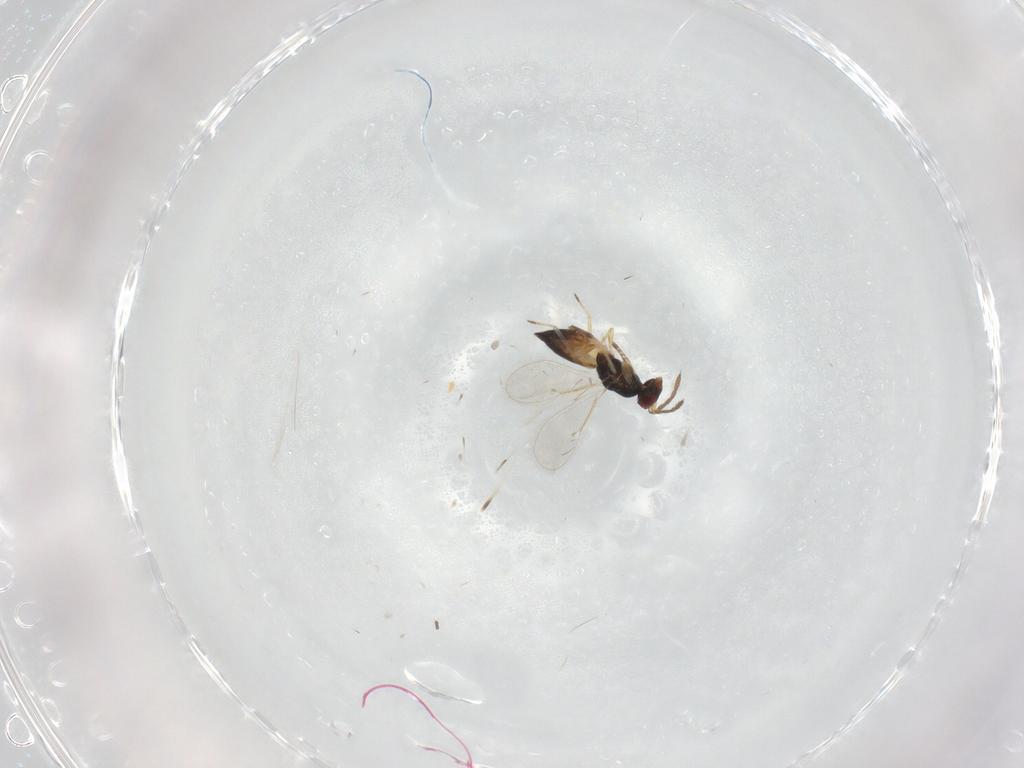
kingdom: Animalia
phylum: Arthropoda
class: Insecta
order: Hymenoptera
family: Eulophidae
